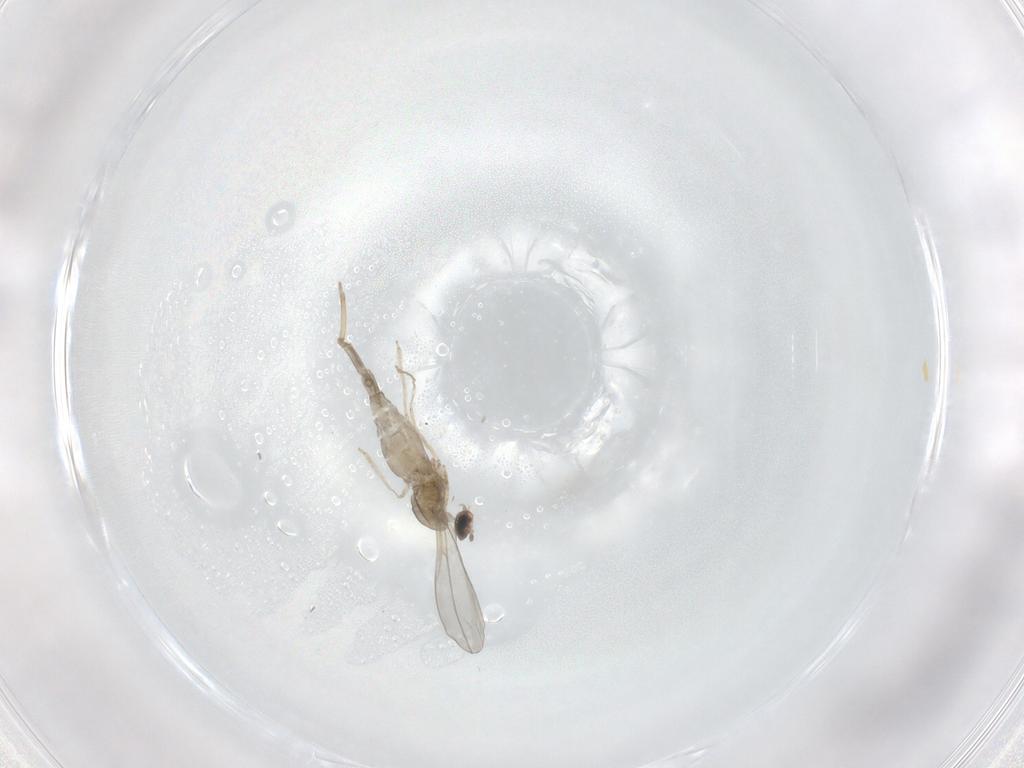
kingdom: Animalia
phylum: Arthropoda
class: Insecta
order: Diptera
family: Cecidomyiidae
